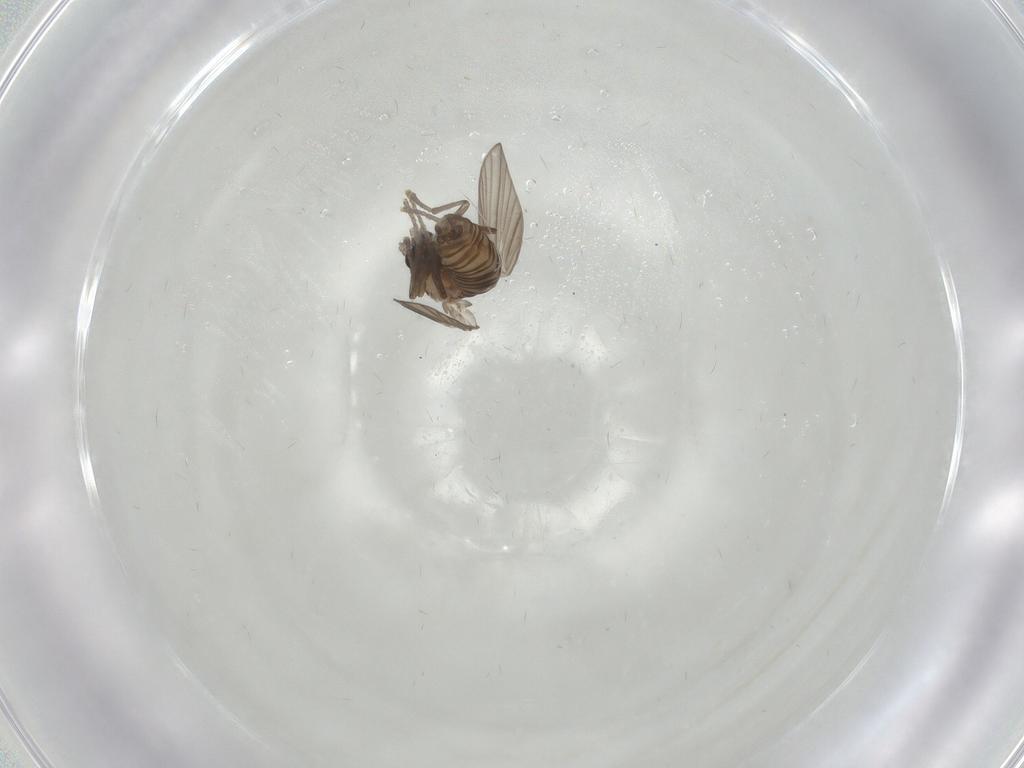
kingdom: Animalia
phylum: Arthropoda
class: Insecta
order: Diptera
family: Psychodidae
